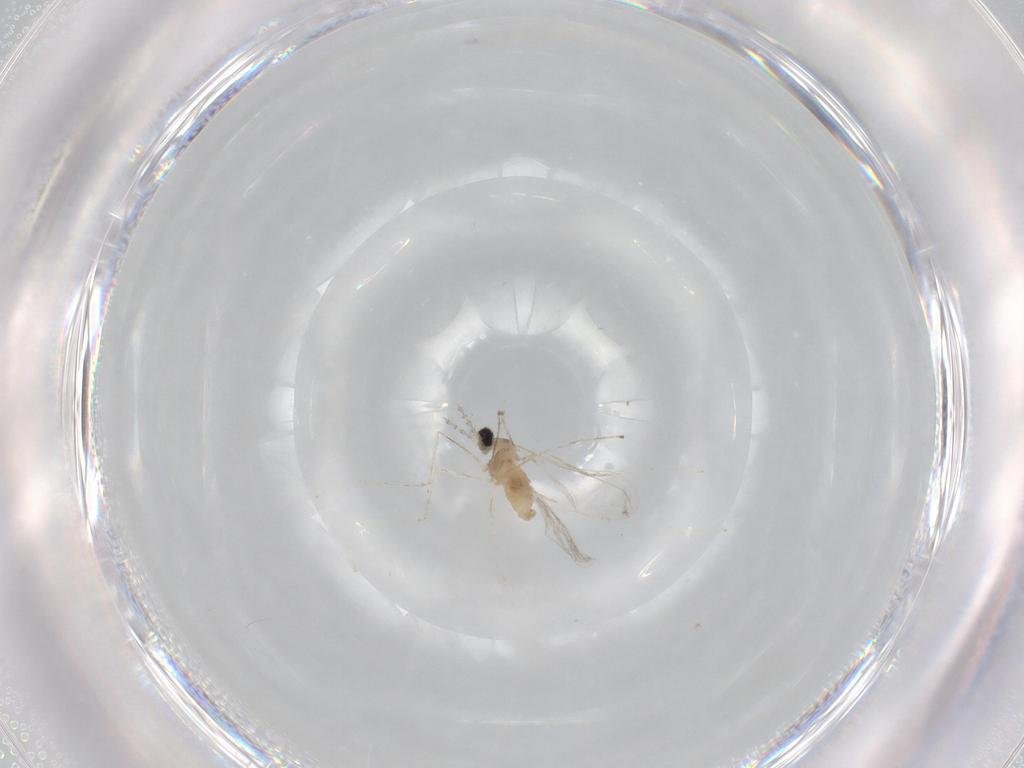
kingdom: Animalia
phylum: Arthropoda
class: Insecta
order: Diptera
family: Cecidomyiidae
